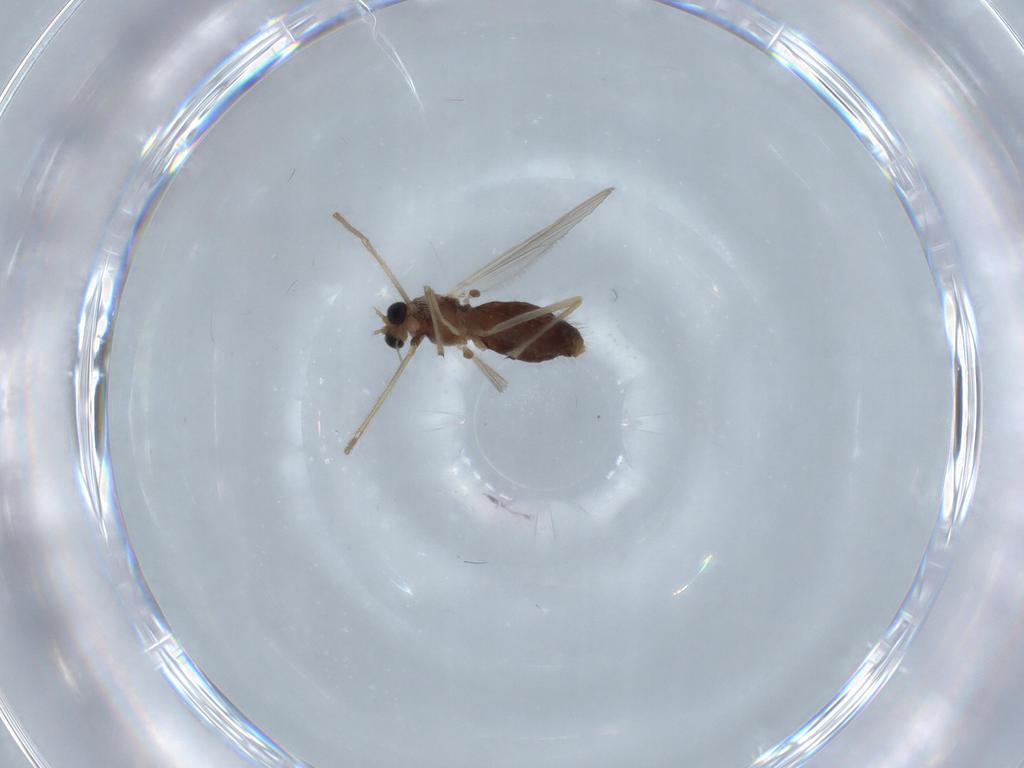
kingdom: Animalia
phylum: Arthropoda
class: Insecta
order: Diptera
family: Chironomidae
